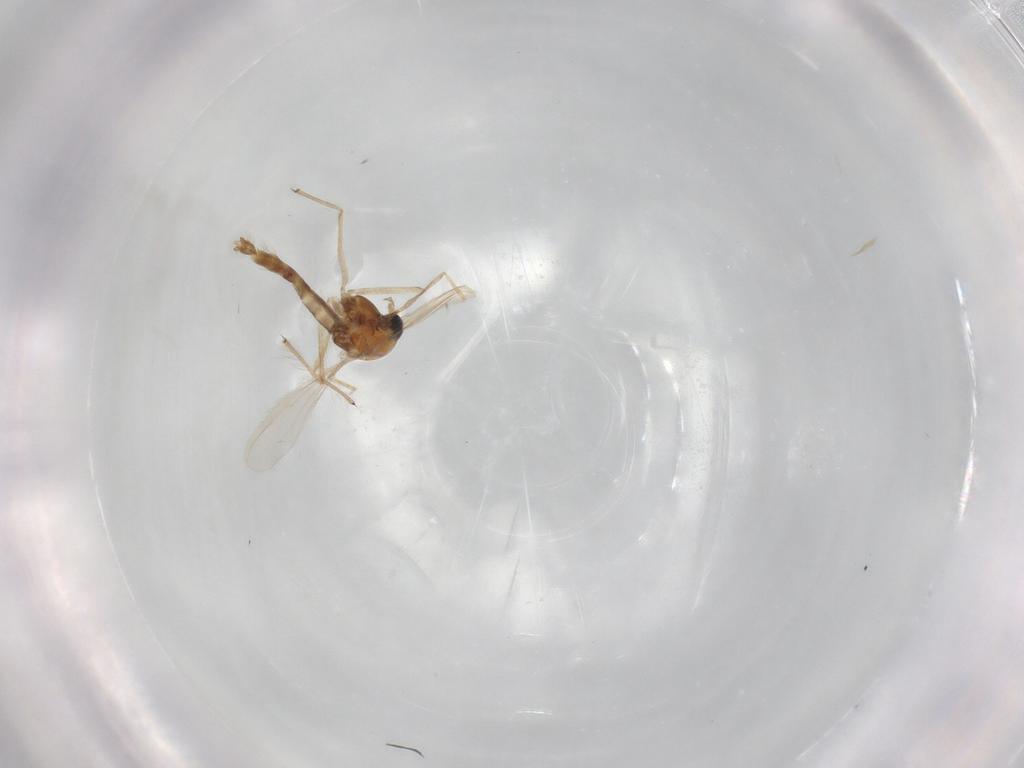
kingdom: Animalia
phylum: Arthropoda
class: Insecta
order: Diptera
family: Chironomidae
